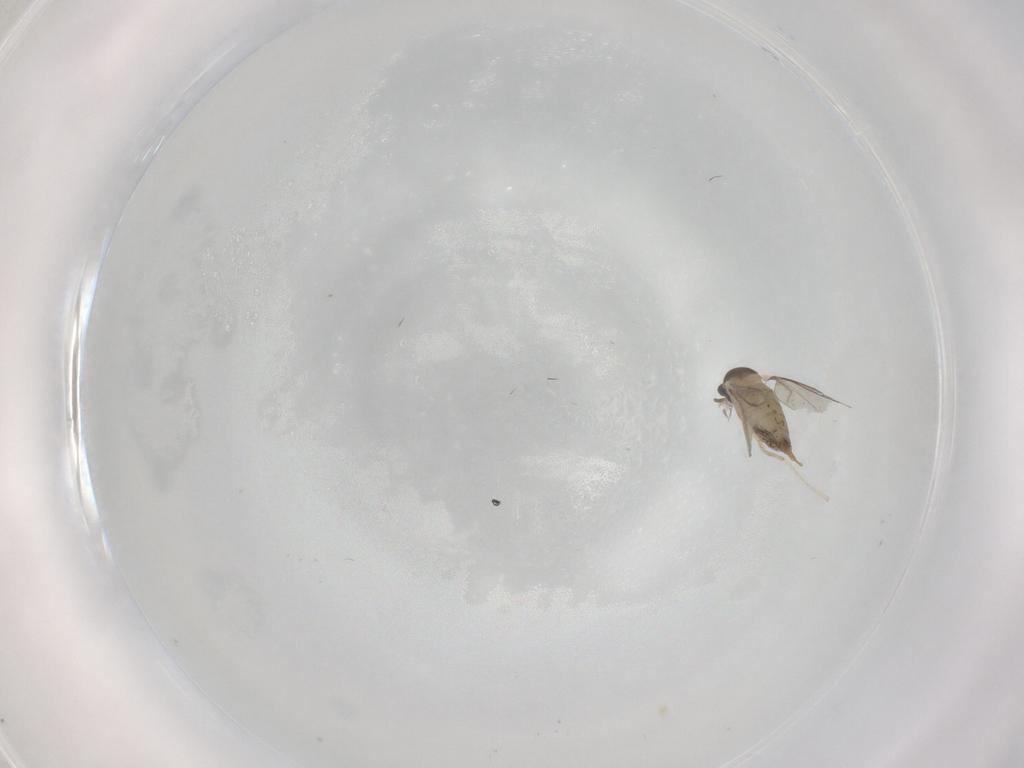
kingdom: Animalia
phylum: Arthropoda
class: Insecta
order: Diptera
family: Cecidomyiidae
